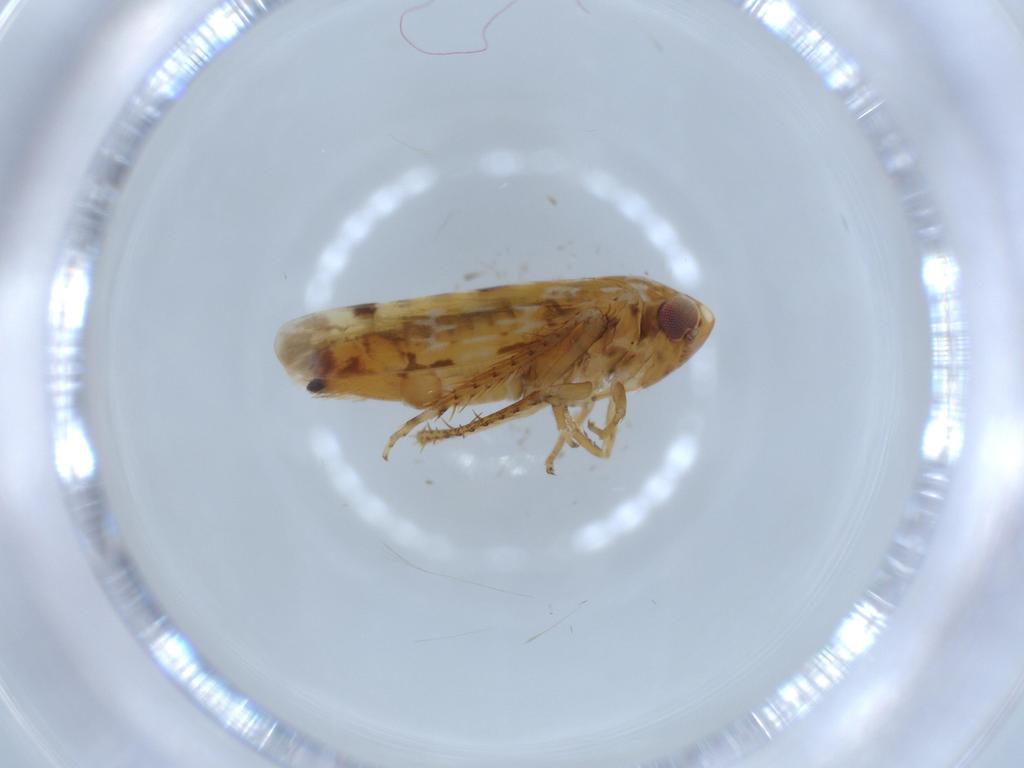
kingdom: Animalia
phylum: Arthropoda
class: Insecta
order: Hemiptera
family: Cicadellidae
